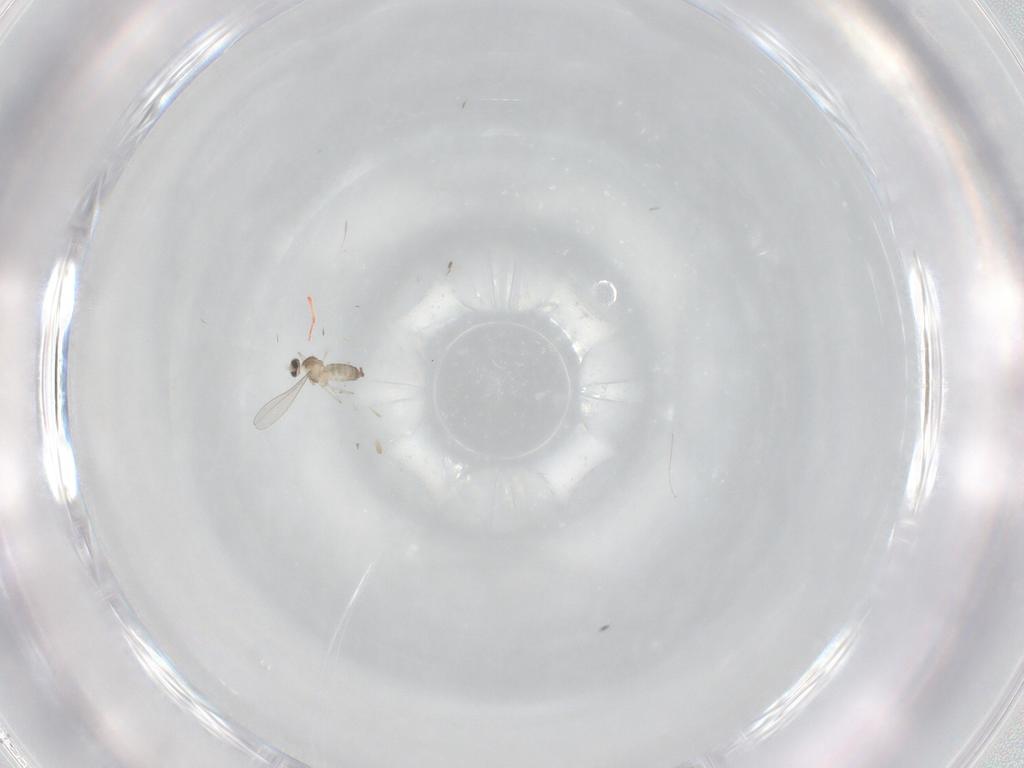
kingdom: Animalia
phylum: Arthropoda
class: Insecta
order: Diptera
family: Cecidomyiidae
